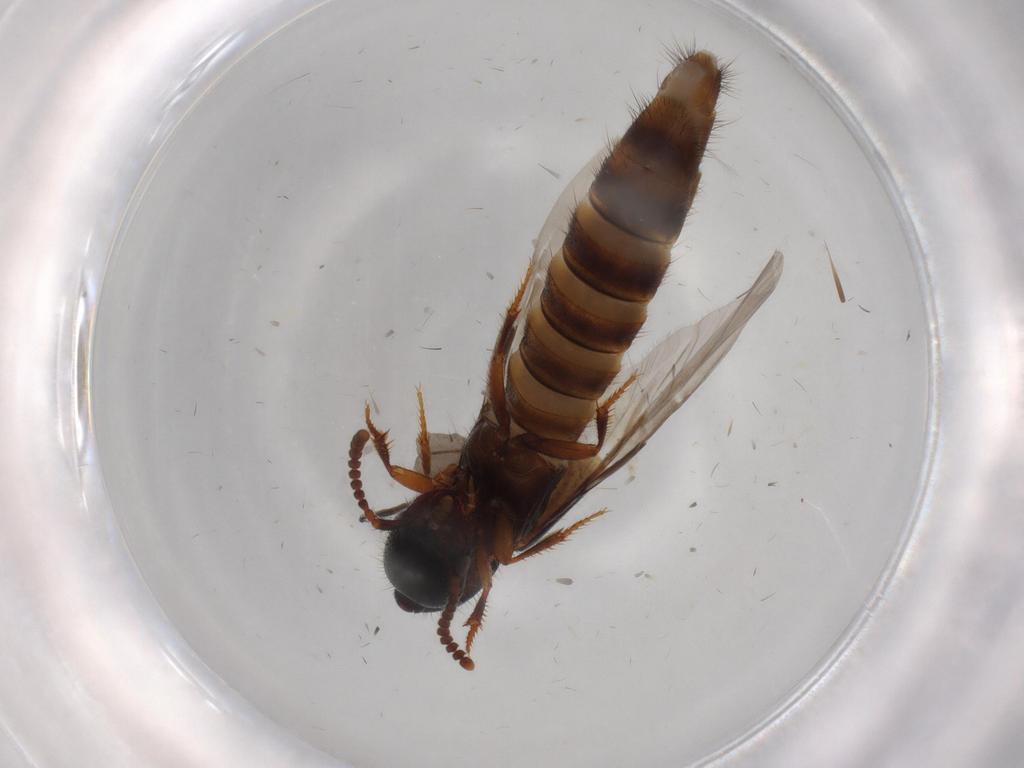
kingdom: Animalia
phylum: Arthropoda
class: Insecta
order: Coleoptera
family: Staphylinidae
